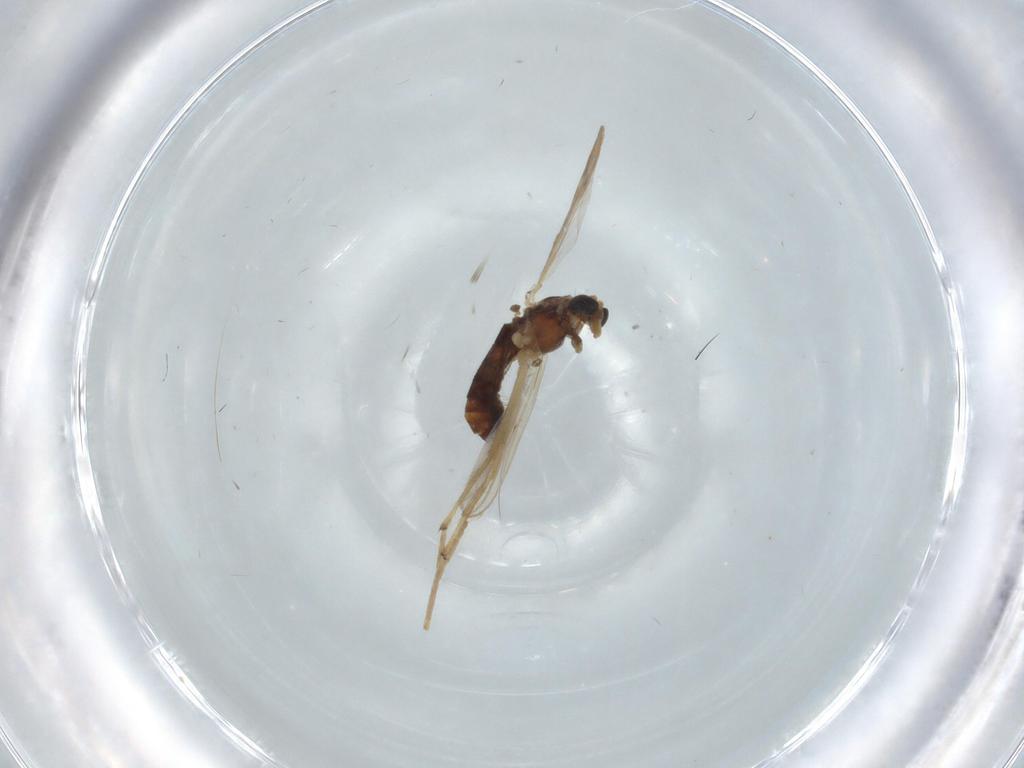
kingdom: Animalia
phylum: Arthropoda
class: Insecta
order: Diptera
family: Chironomidae
